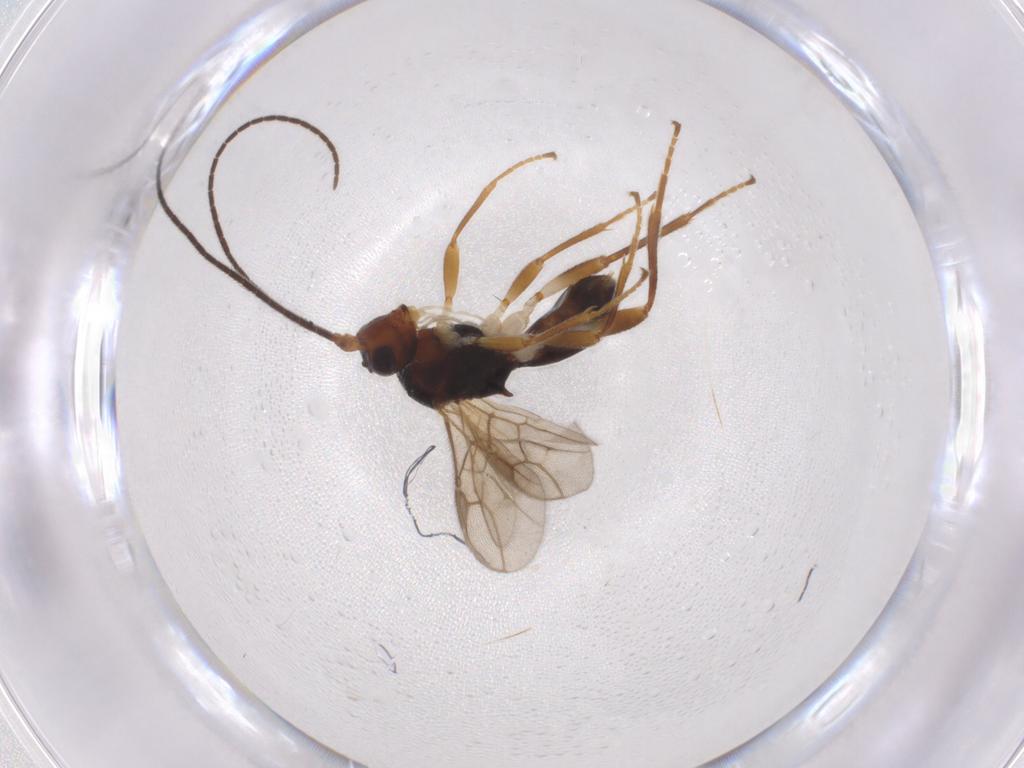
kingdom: Animalia
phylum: Arthropoda
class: Insecta
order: Hymenoptera
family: Braconidae
